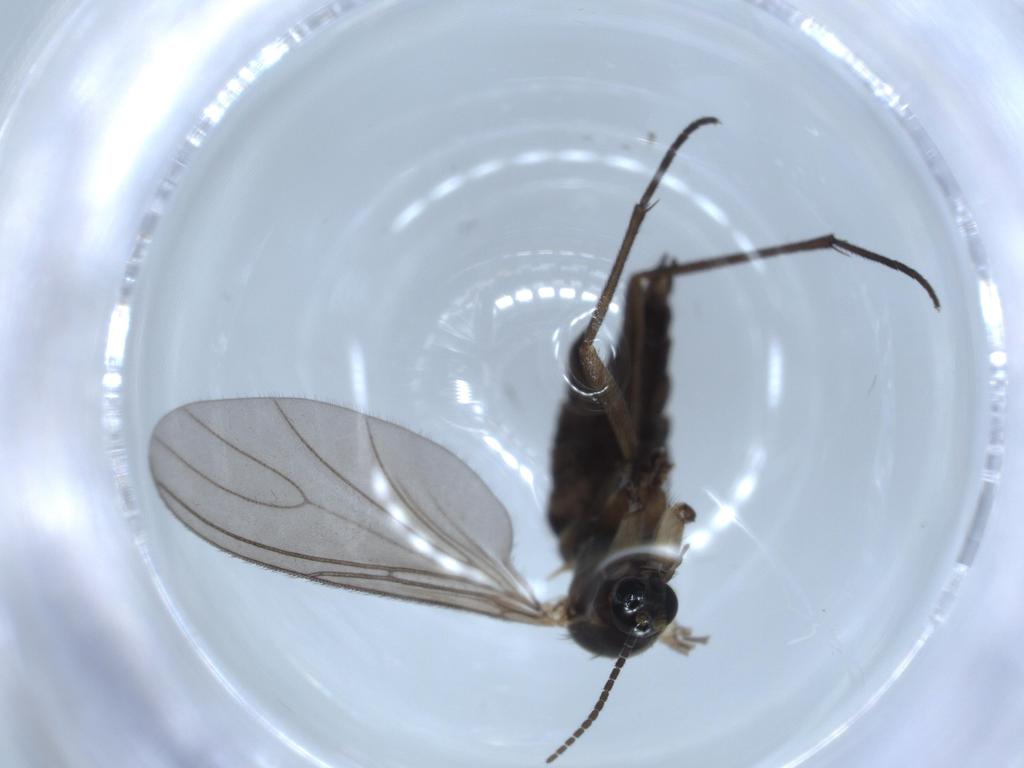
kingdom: Animalia
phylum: Arthropoda
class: Insecta
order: Diptera
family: Sciaridae
